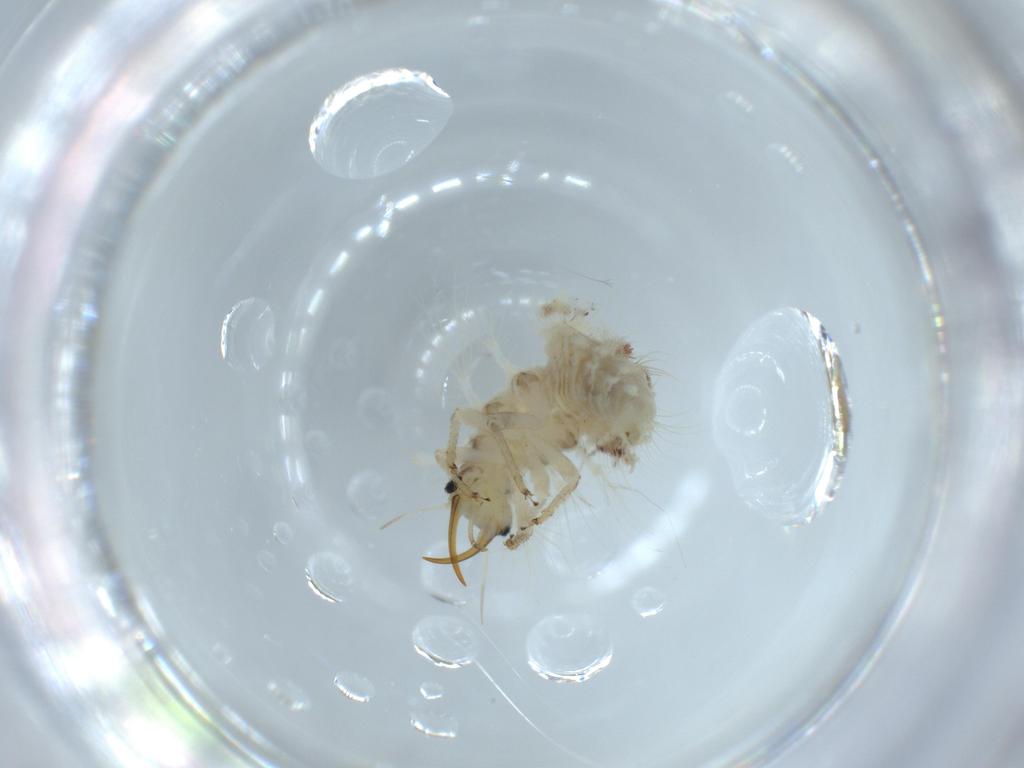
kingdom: Animalia
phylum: Arthropoda
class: Insecta
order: Neuroptera
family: Chrysopidae
